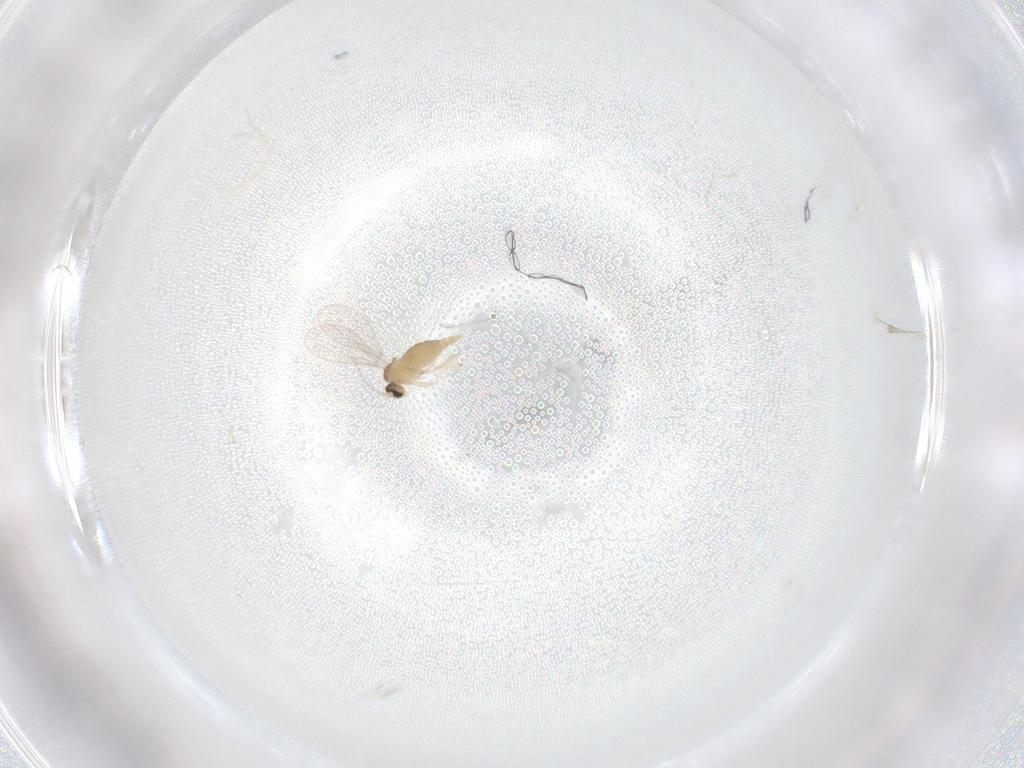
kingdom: Animalia
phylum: Arthropoda
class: Insecta
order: Diptera
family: Cecidomyiidae
